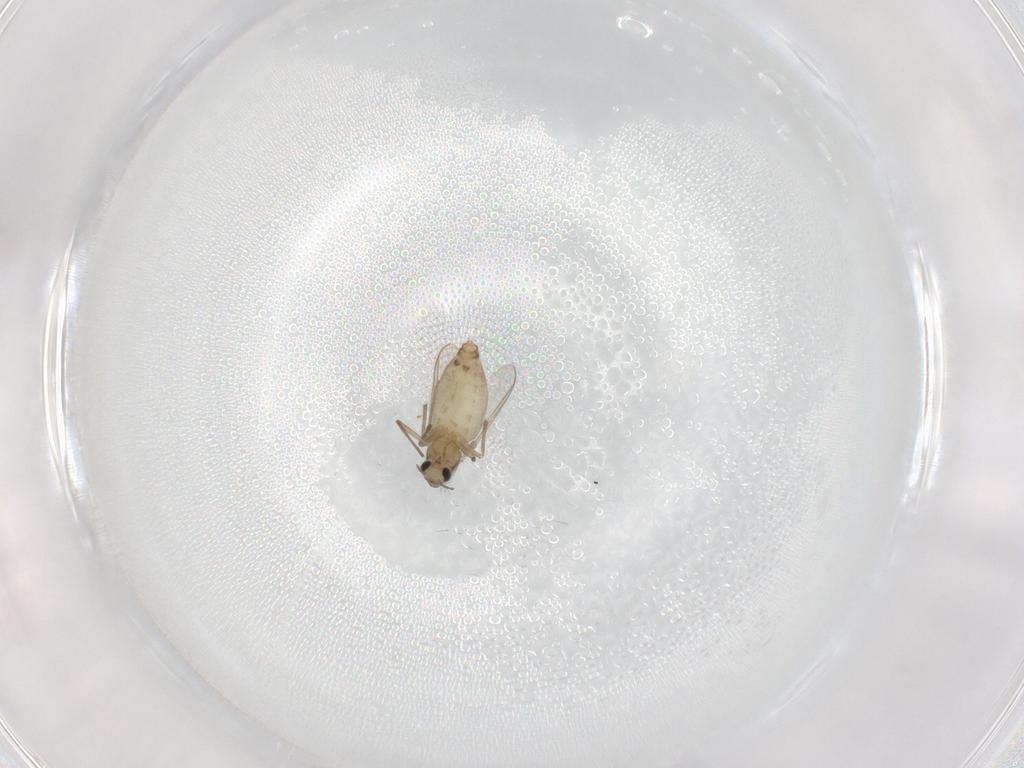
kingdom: Animalia
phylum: Arthropoda
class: Insecta
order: Diptera
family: Chironomidae
